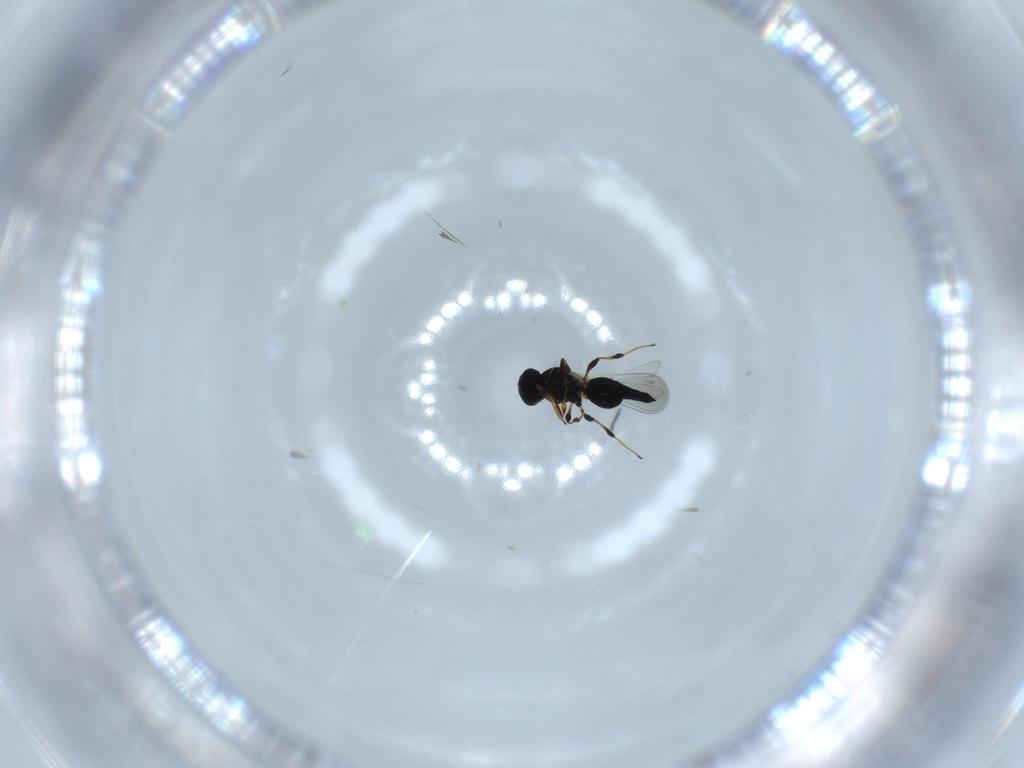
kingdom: Animalia
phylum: Arthropoda
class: Insecta
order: Hymenoptera
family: Scelionidae
